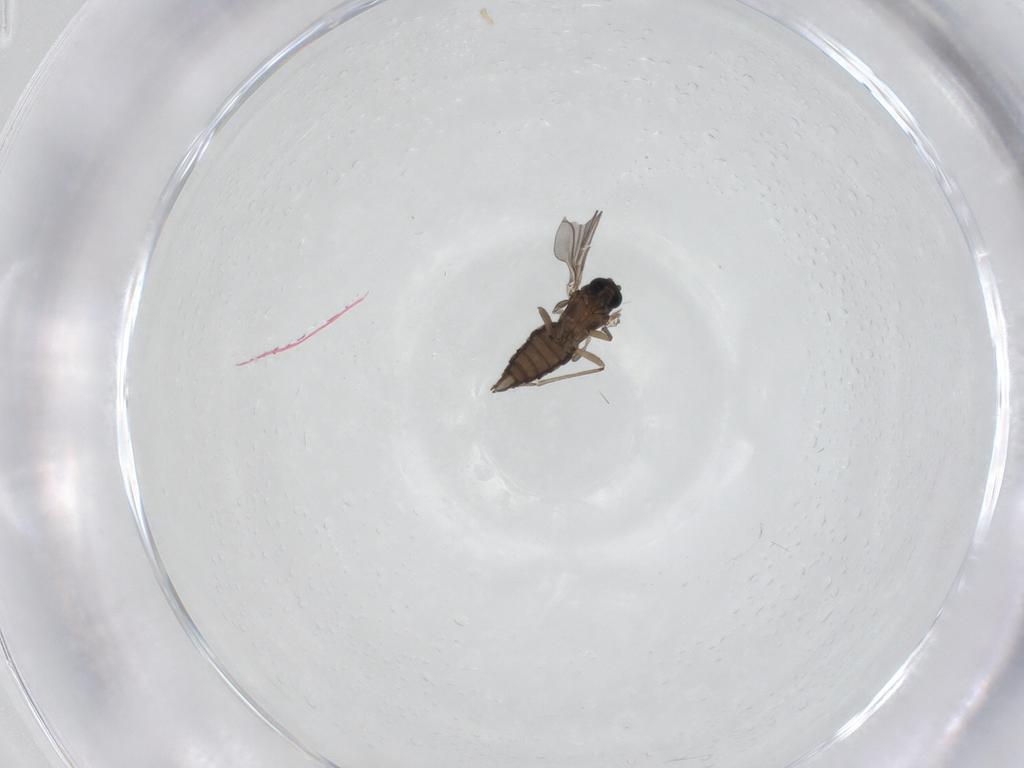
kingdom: Animalia
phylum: Arthropoda
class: Insecta
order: Diptera
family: Sciaridae
